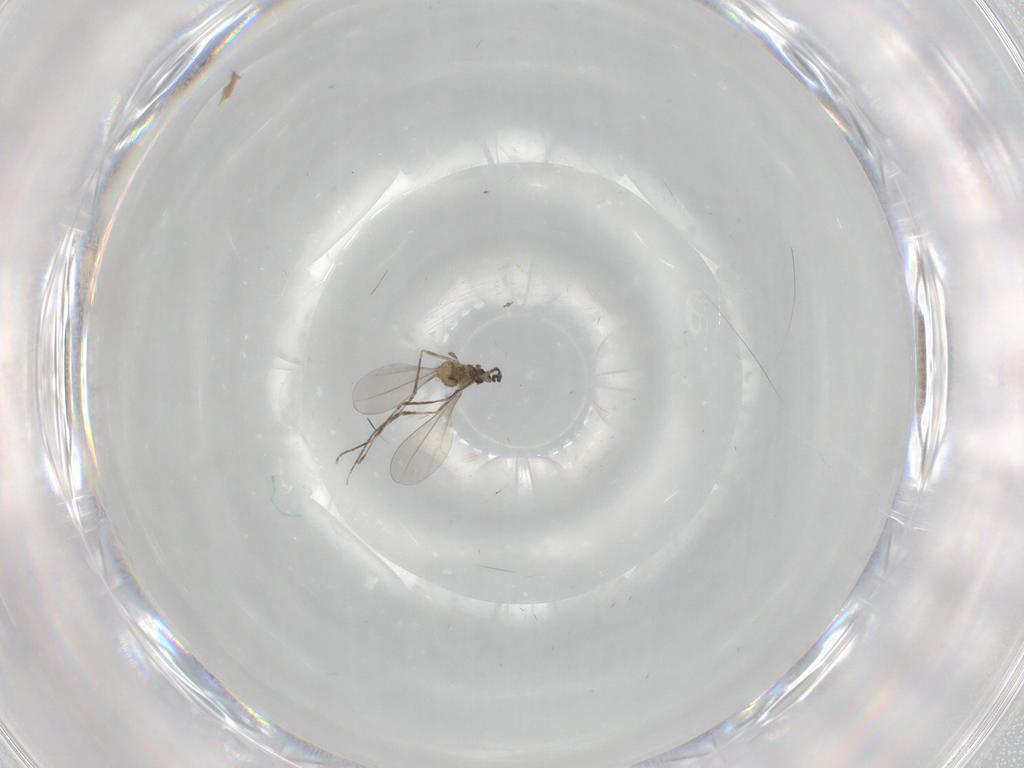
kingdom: Animalia
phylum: Arthropoda
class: Insecta
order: Diptera
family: Cecidomyiidae
